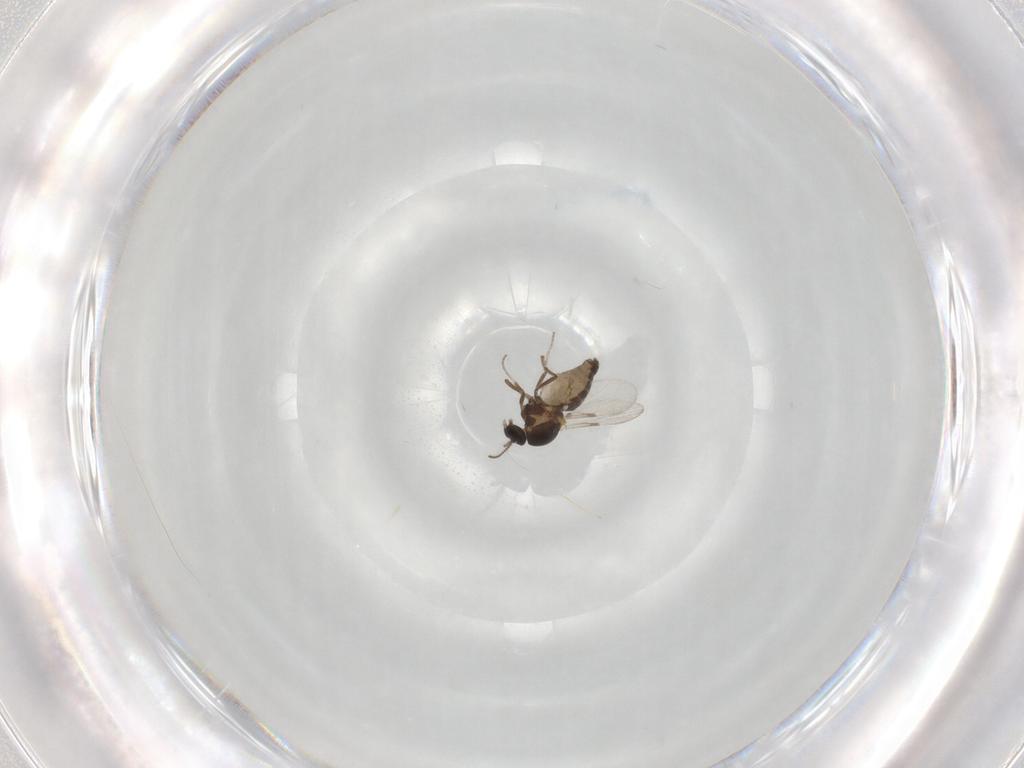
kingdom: Animalia
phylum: Arthropoda
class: Insecta
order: Diptera
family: Ceratopogonidae
